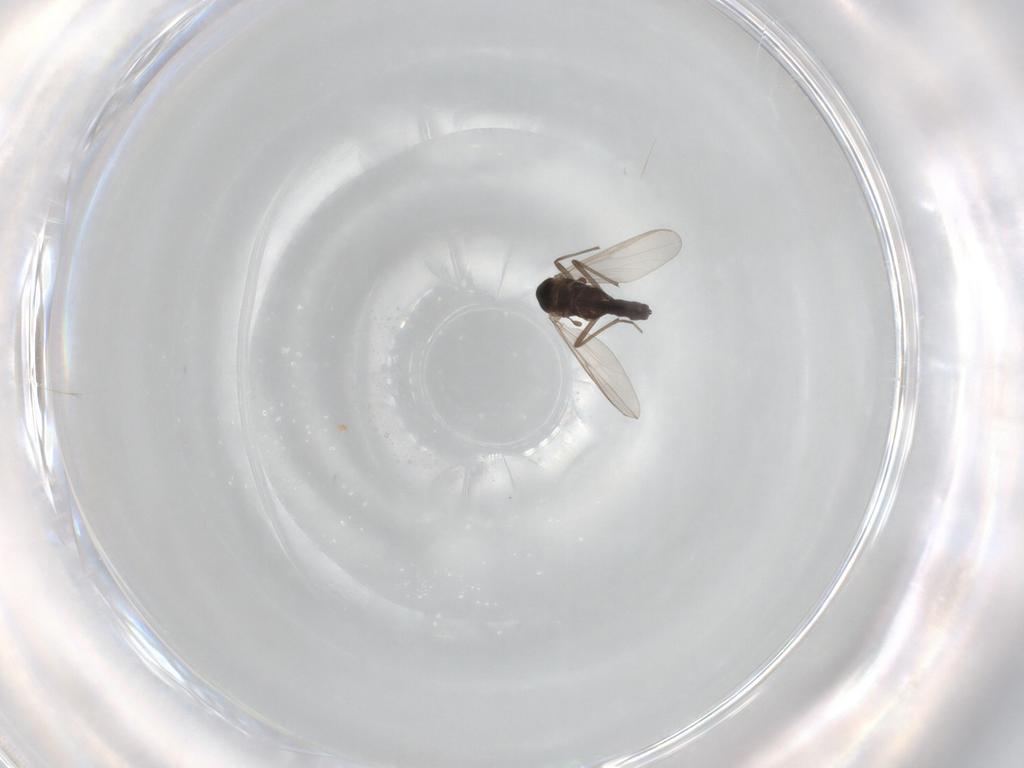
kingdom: Animalia
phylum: Arthropoda
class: Insecta
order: Diptera
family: Chironomidae
